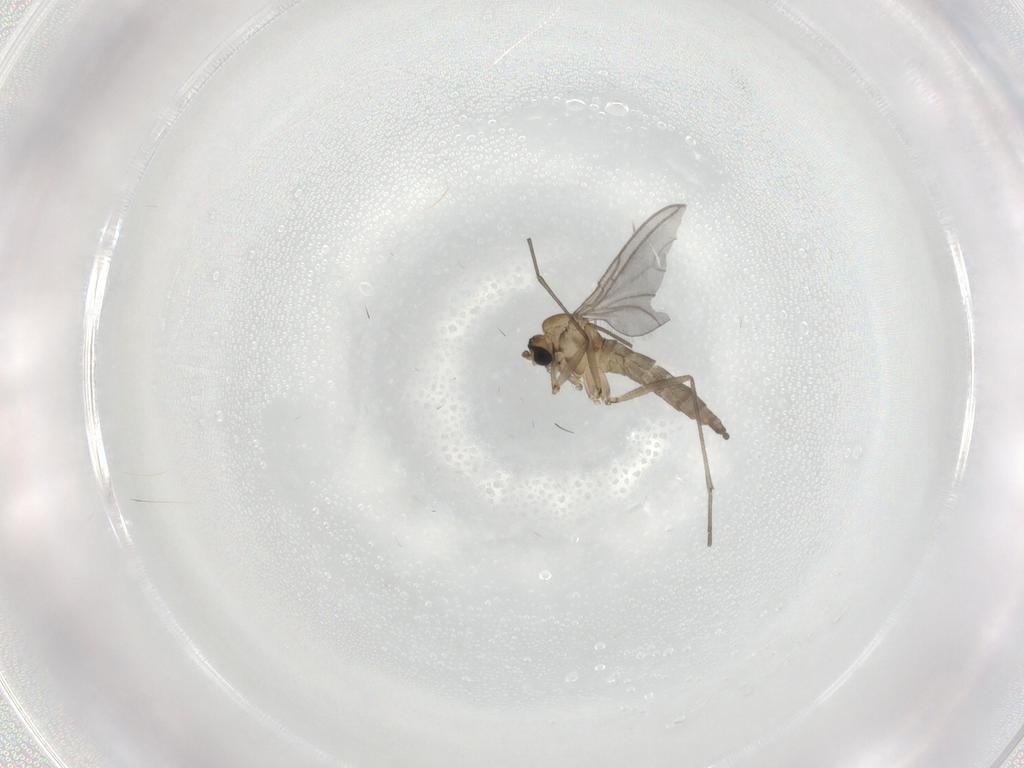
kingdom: Animalia
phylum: Arthropoda
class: Insecta
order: Diptera
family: Sciaridae
